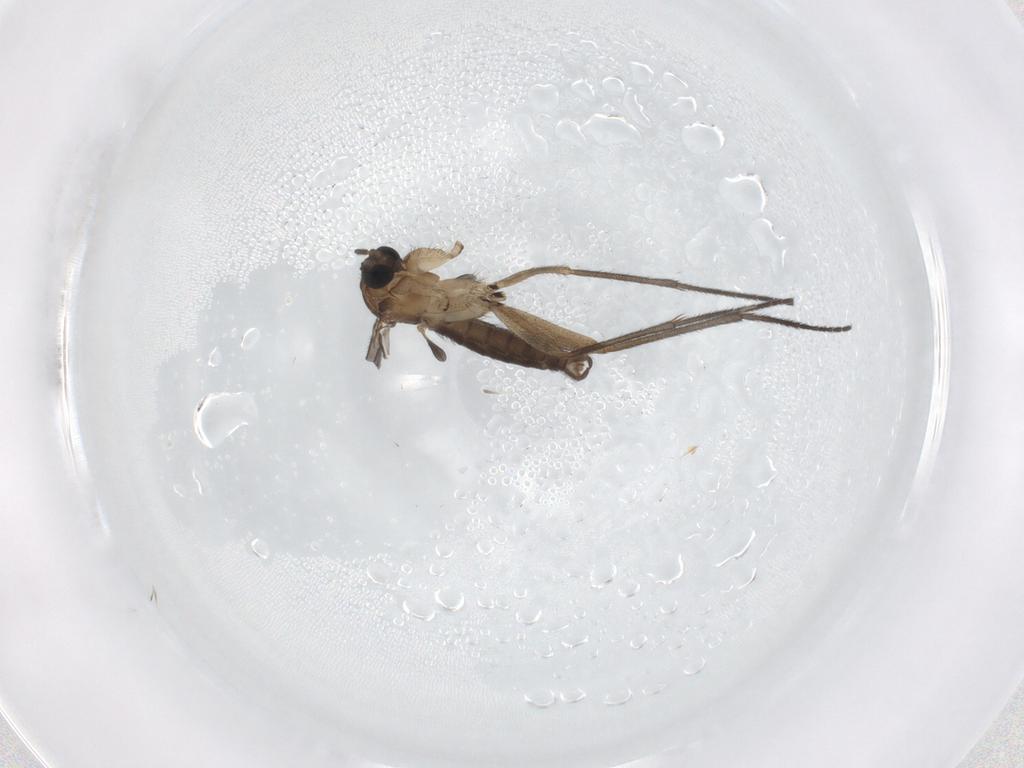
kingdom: Animalia
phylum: Arthropoda
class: Insecta
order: Diptera
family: Sciaridae
